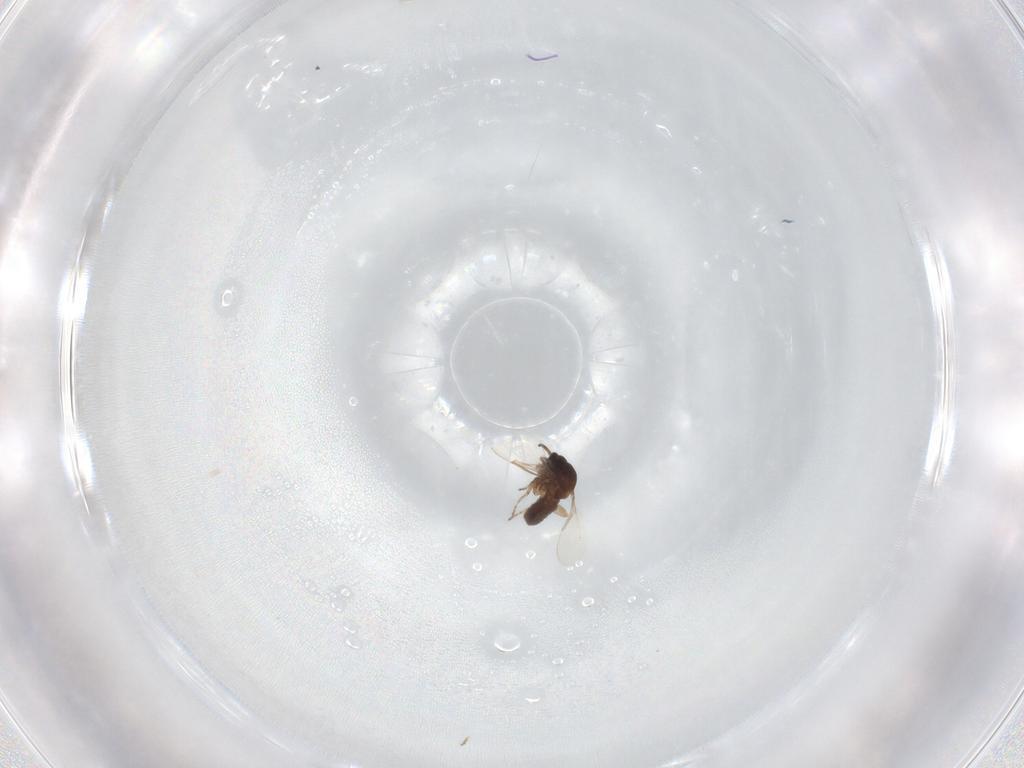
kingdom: Animalia
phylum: Arthropoda
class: Insecta
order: Diptera
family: Ceratopogonidae
